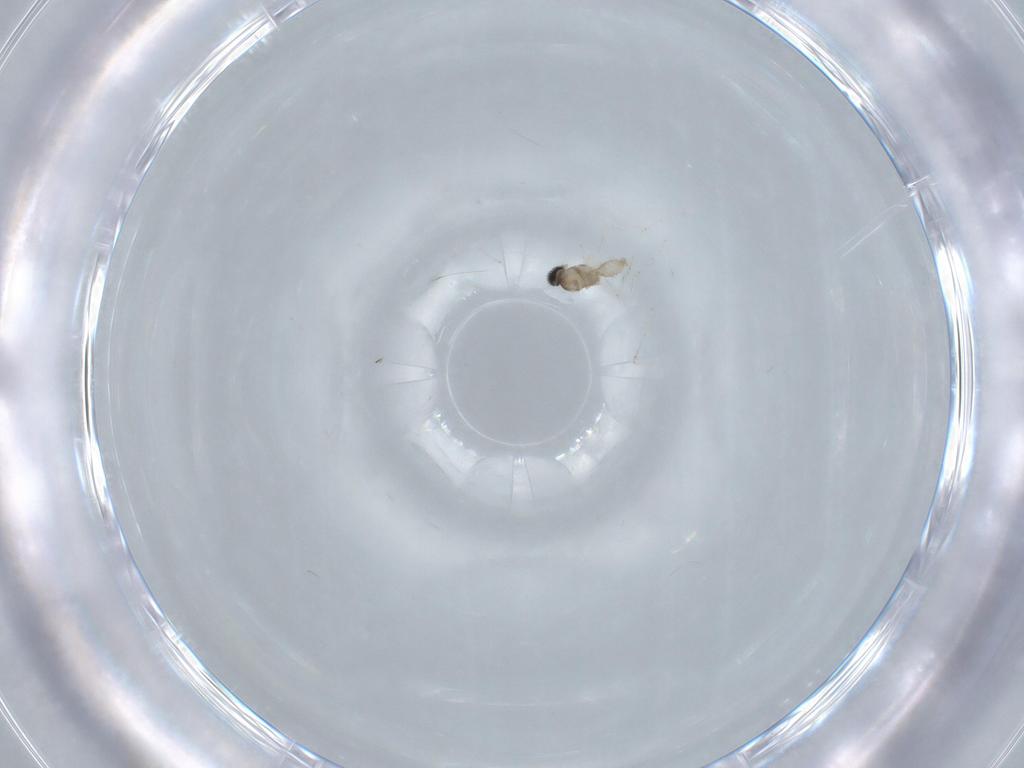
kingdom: Animalia
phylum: Arthropoda
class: Insecta
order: Diptera
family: Cecidomyiidae
